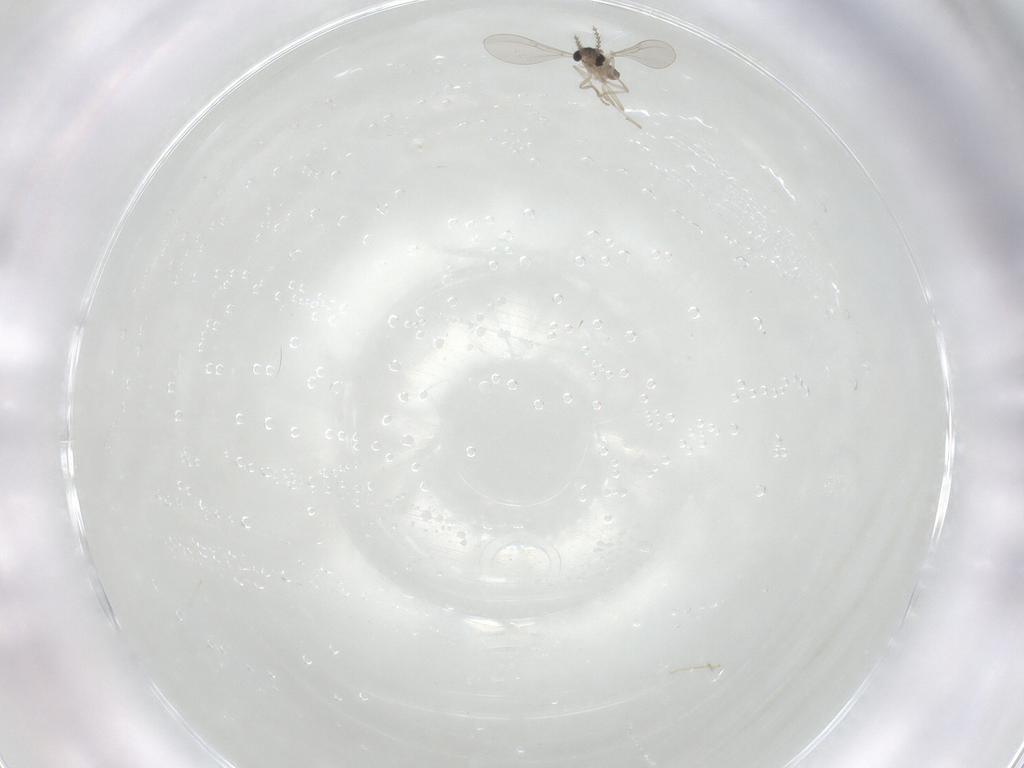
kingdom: Animalia
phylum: Arthropoda
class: Insecta
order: Diptera
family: Cecidomyiidae
